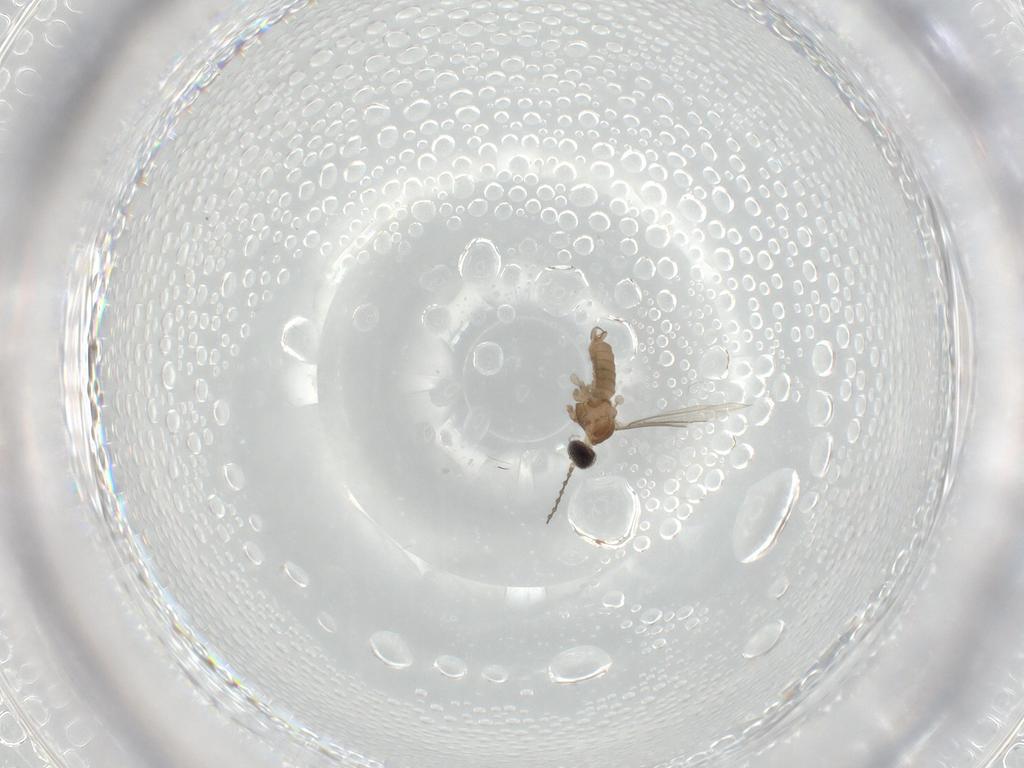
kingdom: Animalia
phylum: Arthropoda
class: Insecta
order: Diptera
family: Cecidomyiidae
